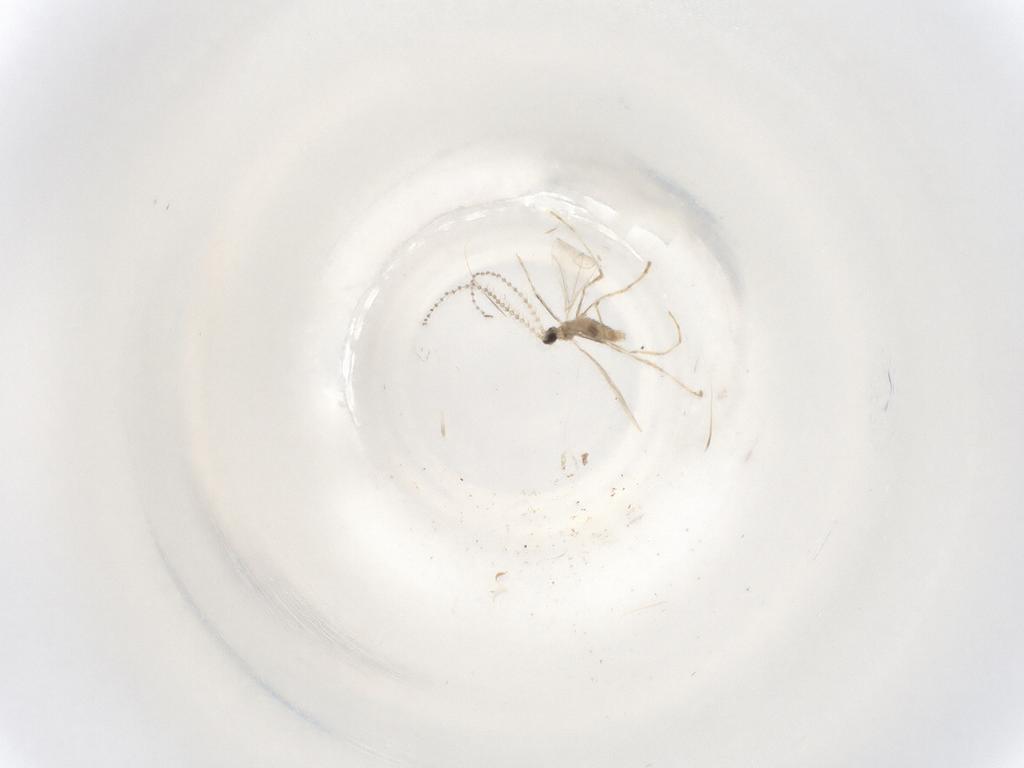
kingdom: Animalia
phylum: Arthropoda
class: Insecta
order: Diptera
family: Cecidomyiidae
